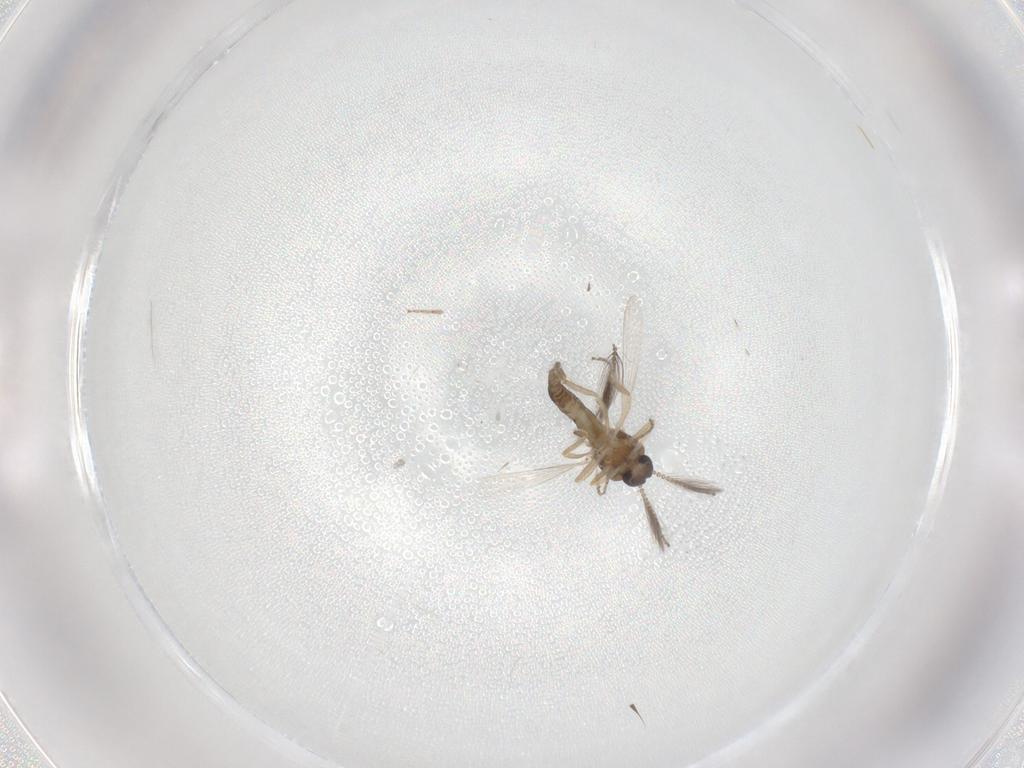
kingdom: Animalia
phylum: Arthropoda
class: Insecta
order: Diptera
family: Ceratopogonidae
